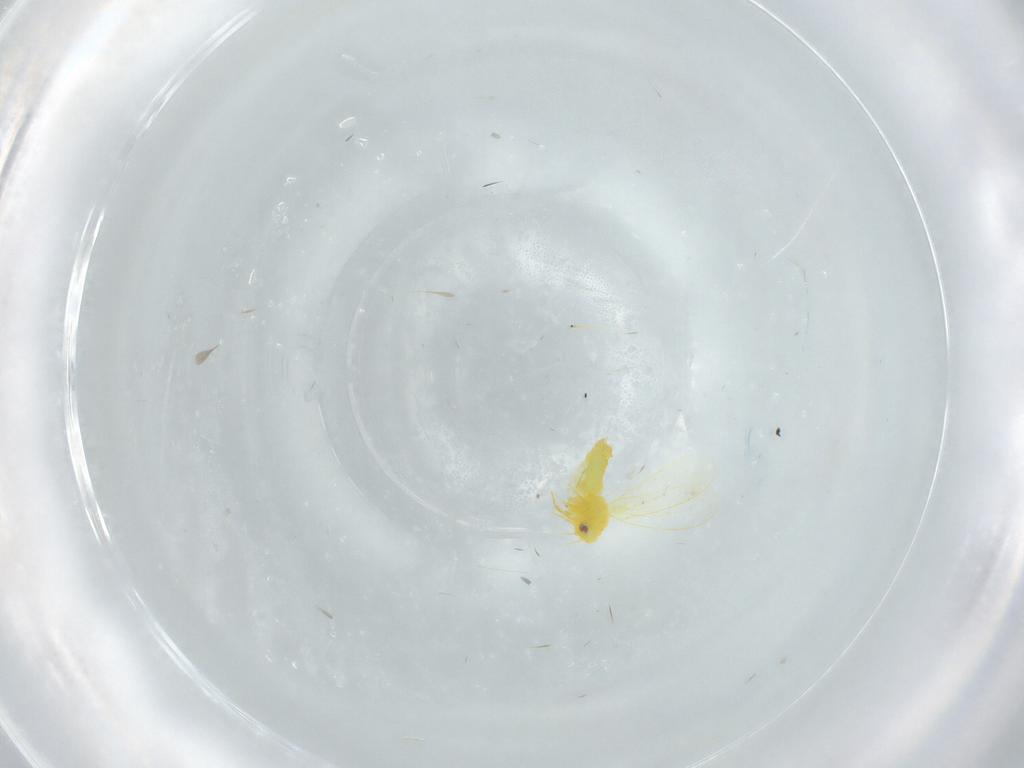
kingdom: Animalia
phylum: Arthropoda
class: Insecta
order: Hemiptera
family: Aleyrodidae
